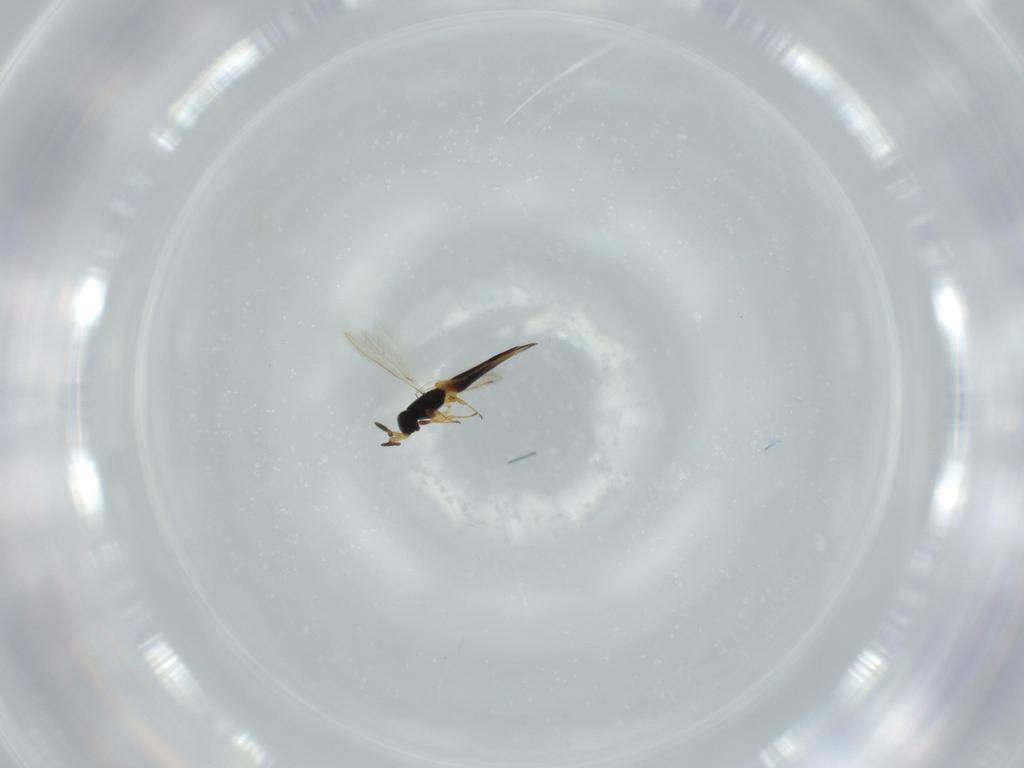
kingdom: Animalia
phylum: Arthropoda
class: Insecta
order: Hymenoptera
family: Scelionidae
